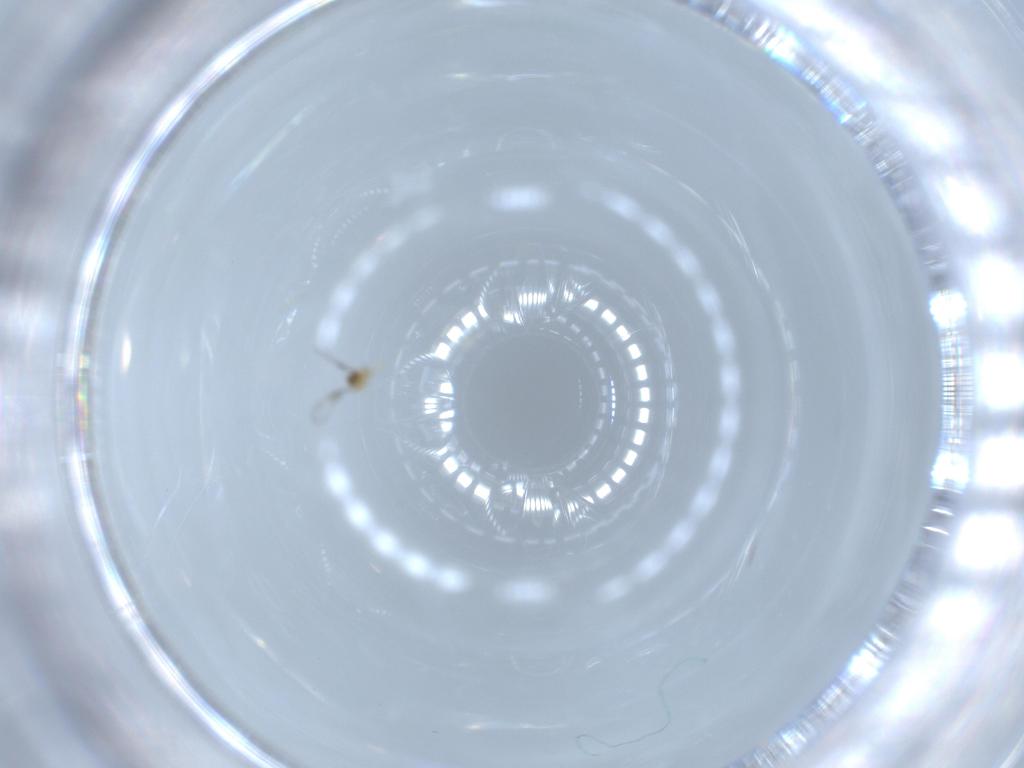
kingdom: Animalia
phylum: Arthropoda
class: Insecta
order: Hymenoptera
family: Trichogrammatidae
